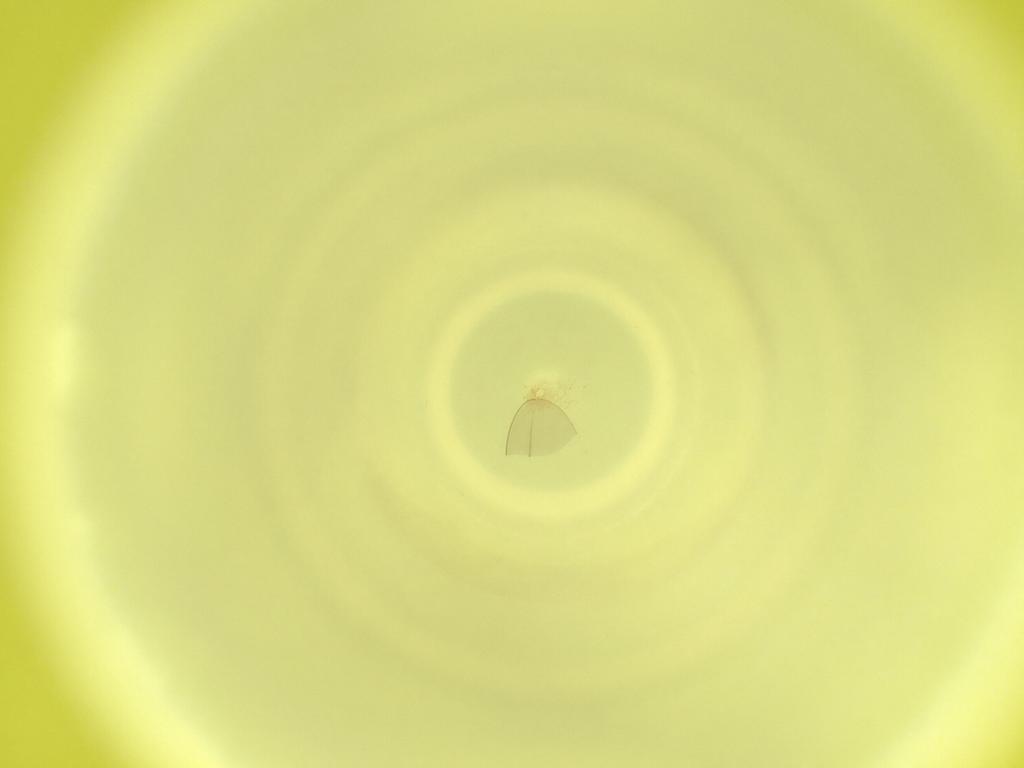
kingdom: Animalia
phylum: Arthropoda
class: Insecta
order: Diptera
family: Cecidomyiidae
